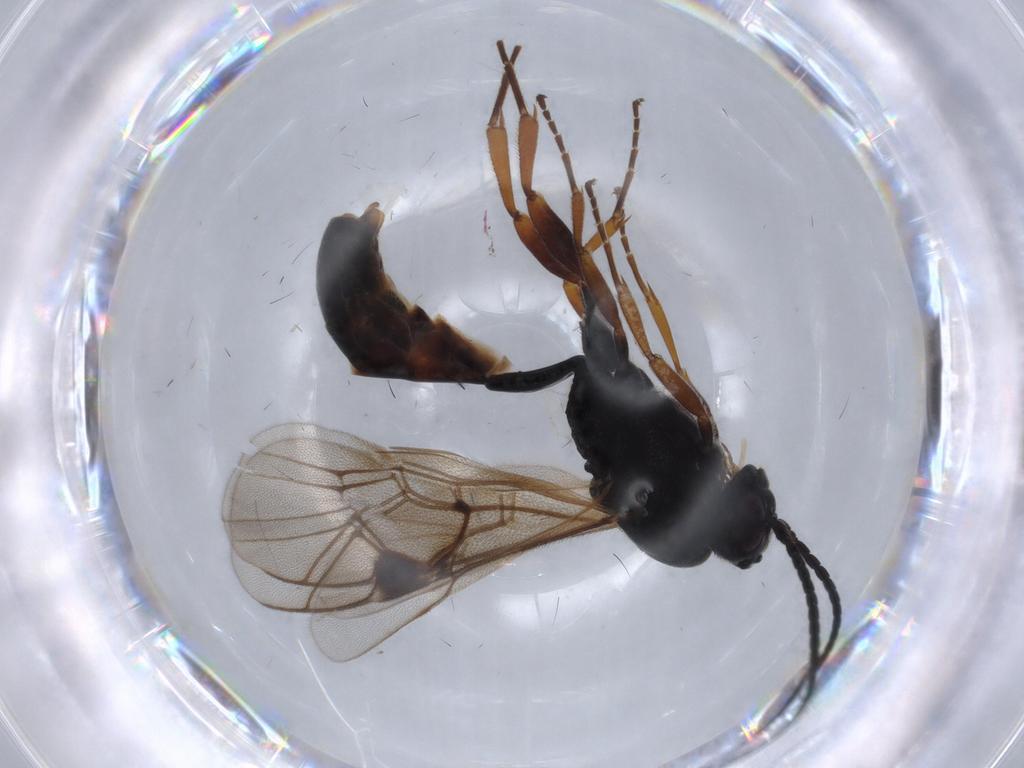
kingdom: Animalia
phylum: Arthropoda
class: Insecta
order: Hymenoptera
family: Ichneumonidae
